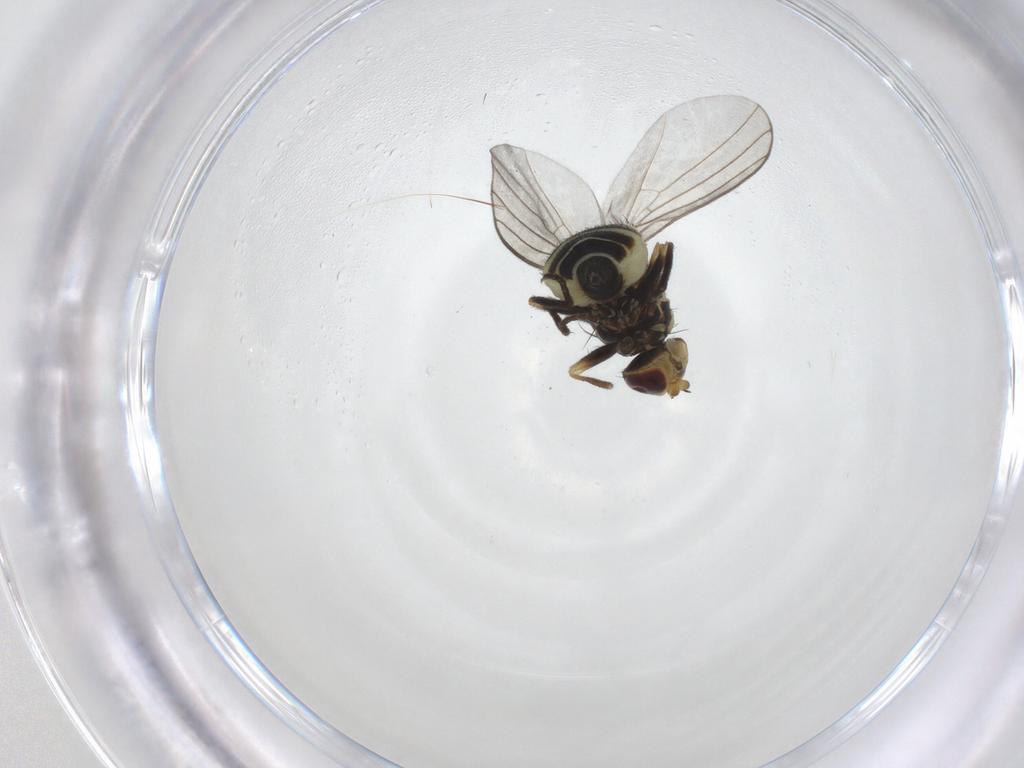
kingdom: Animalia
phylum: Arthropoda
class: Insecta
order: Diptera
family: Agromyzidae
